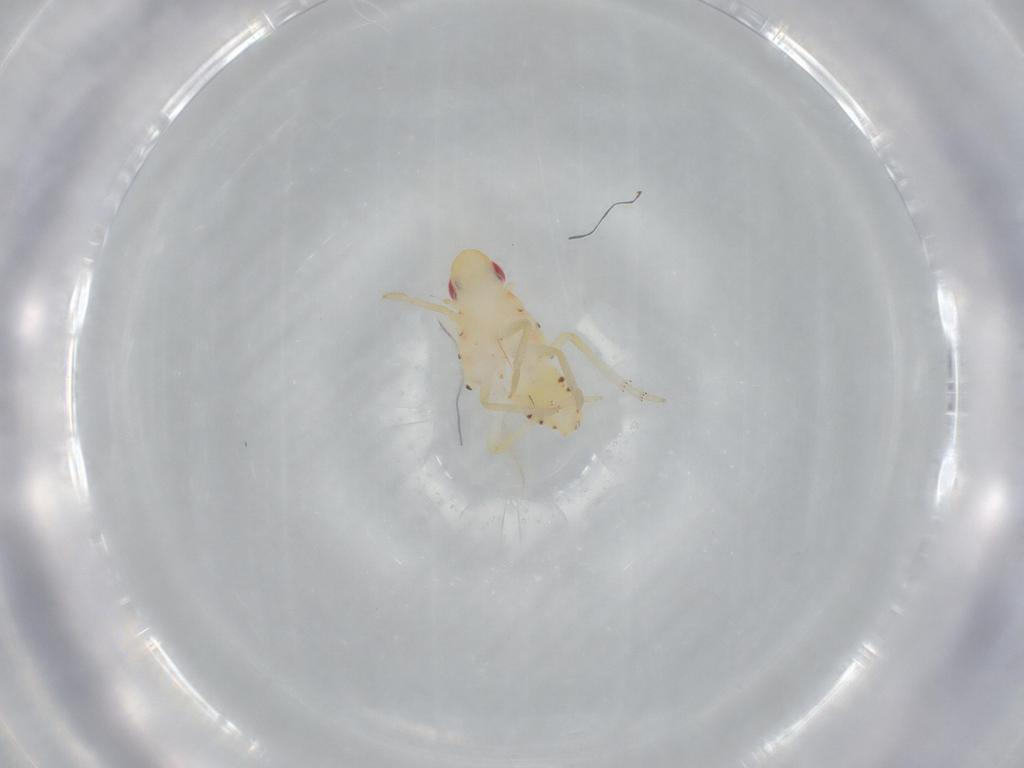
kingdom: Animalia
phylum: Arthropoda
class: Insecta
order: Hemiptera
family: Tropiduchidae
